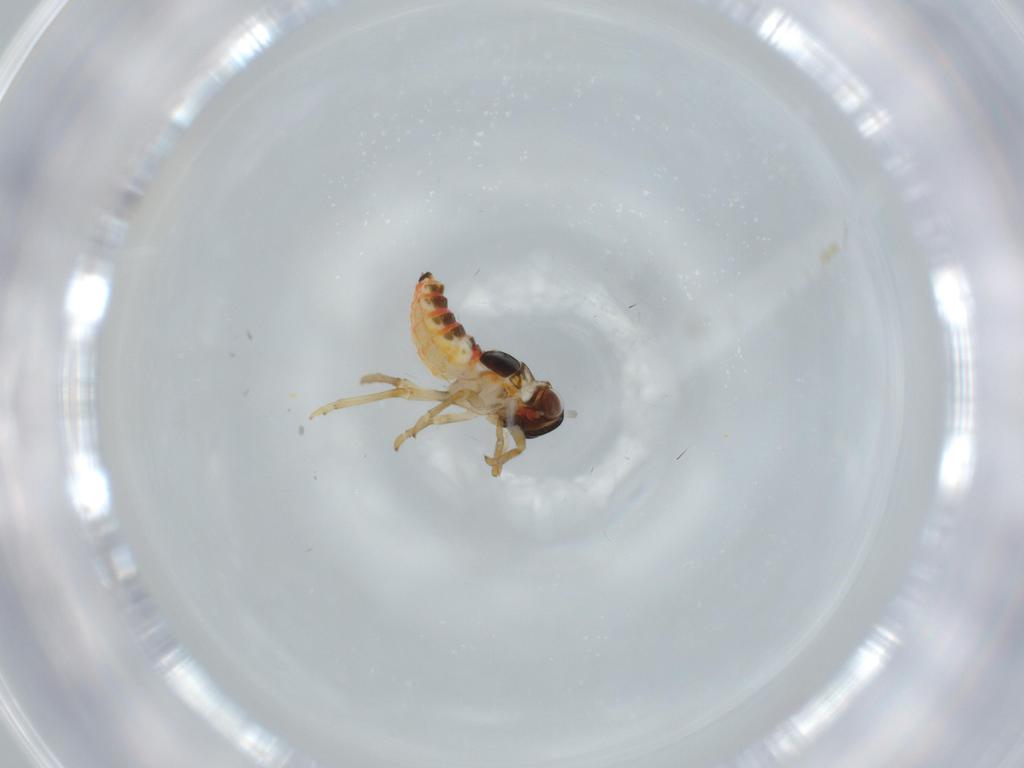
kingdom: Animalia
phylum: Arthropoda
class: Insecta
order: Hemiptera
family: Issidae
